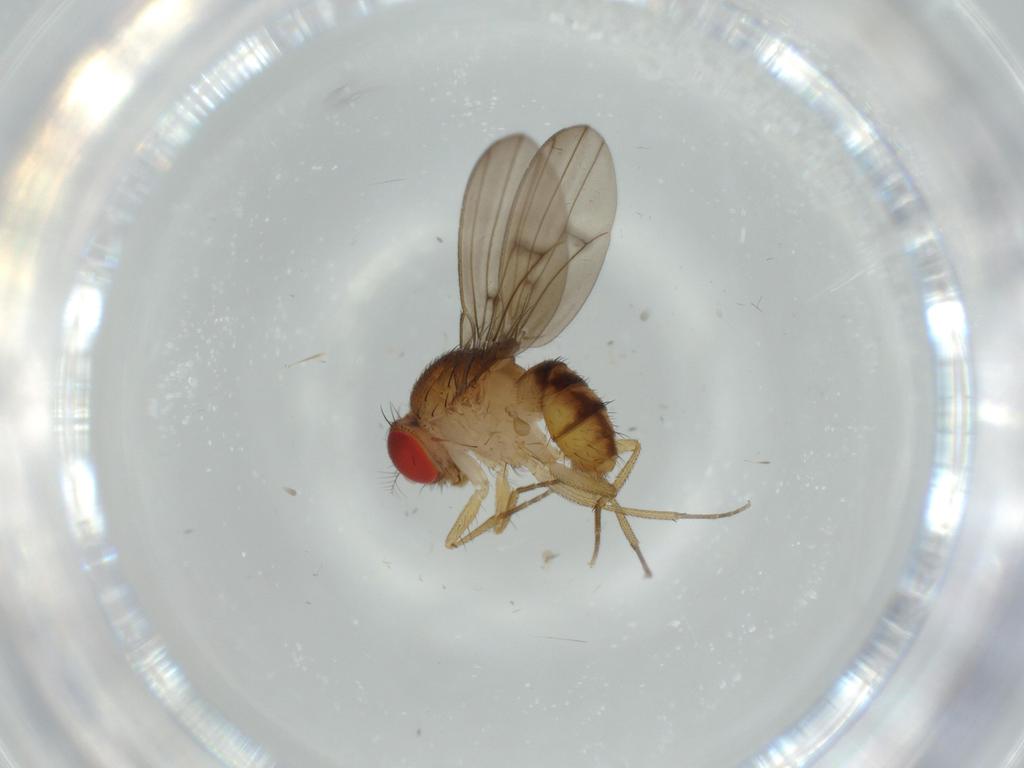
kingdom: Animalia
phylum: Arthropoda
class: Insecta
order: Diptera
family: Drosophilidae
